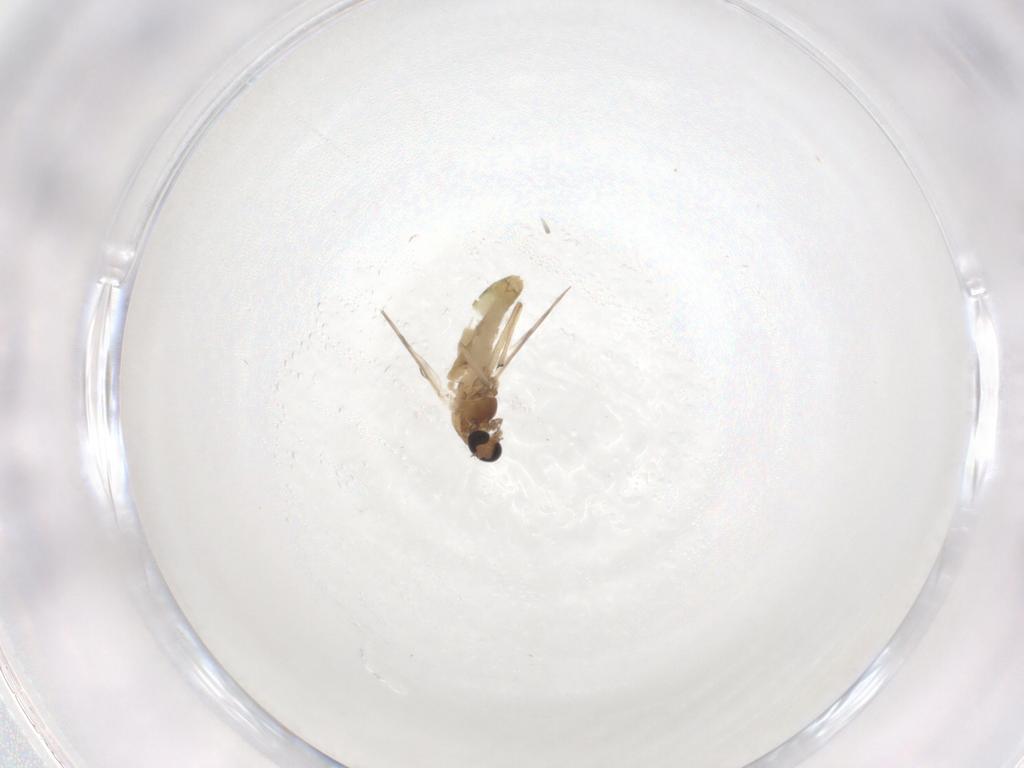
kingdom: Animalia
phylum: Arthropoda
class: Insecta
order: Diptera
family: Chironomidae
